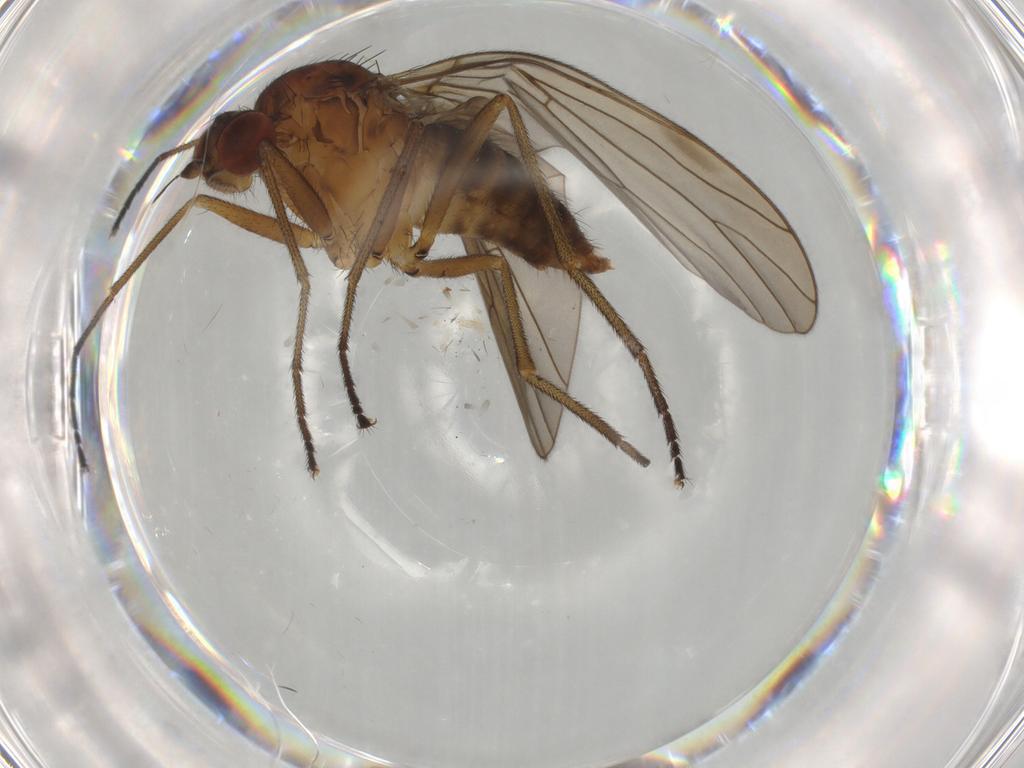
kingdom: Animalia
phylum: Arthropoda
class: Insecta
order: Diptera
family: Brachystomatidae
